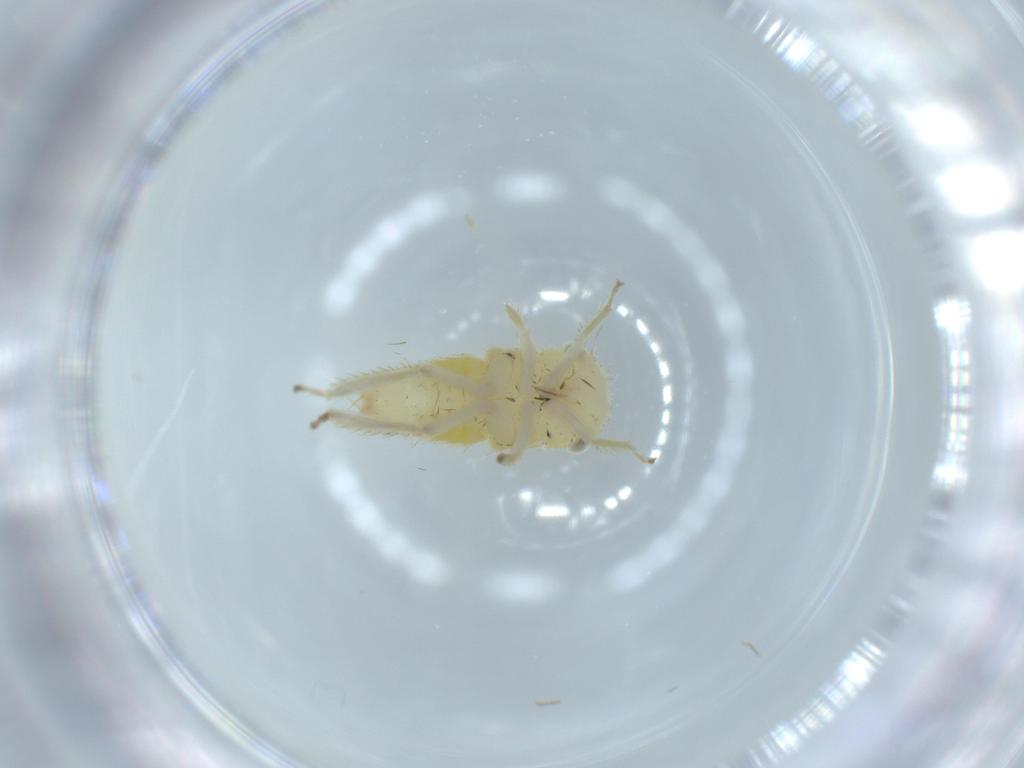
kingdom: Animalia
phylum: Arthropoda
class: Insecta
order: Hemiptera
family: Cicadellidae
